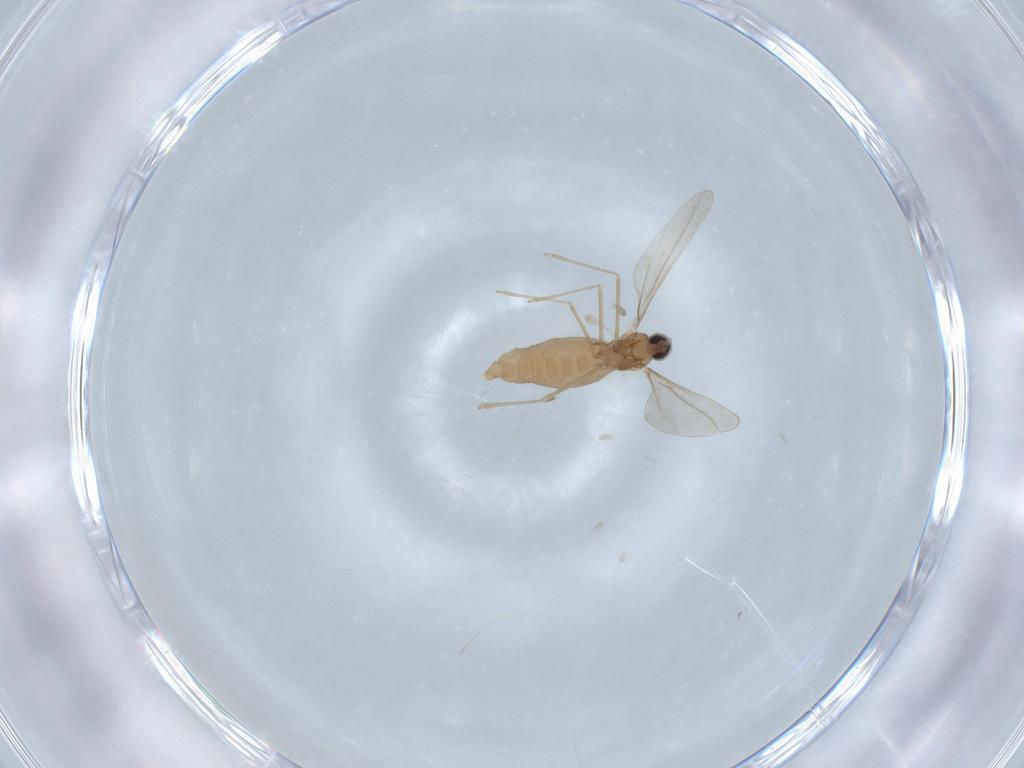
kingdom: Animalia
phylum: Arthropoda
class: Insecta
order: Diptera
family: Cecidomyiidae
